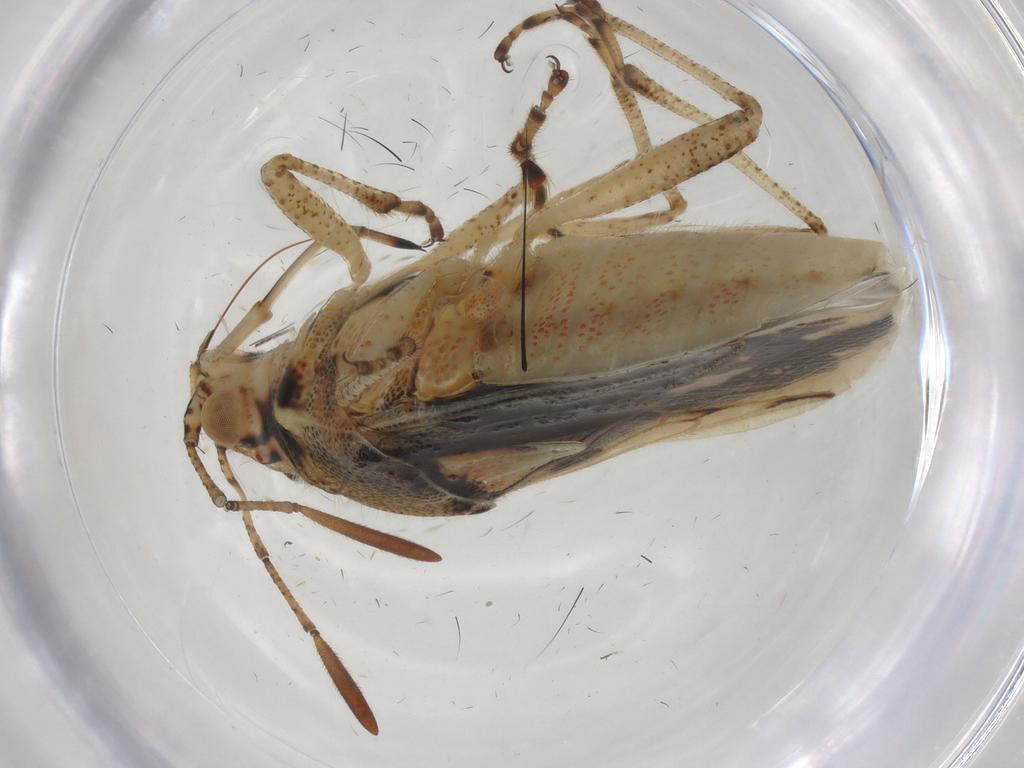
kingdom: Animalia
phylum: Arthropoda
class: Insecta
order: Hemiptera
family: Rhopalidae
